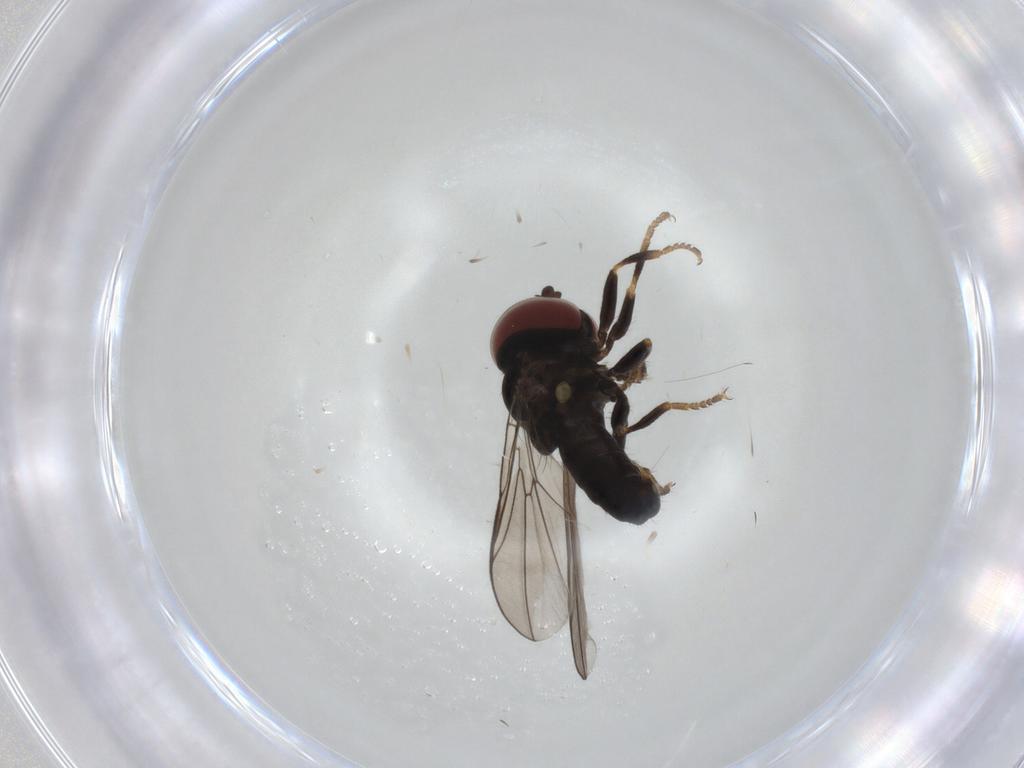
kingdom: Animalia
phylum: Arthropoda
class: Insecta
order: Diptera
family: Pipunculidae
